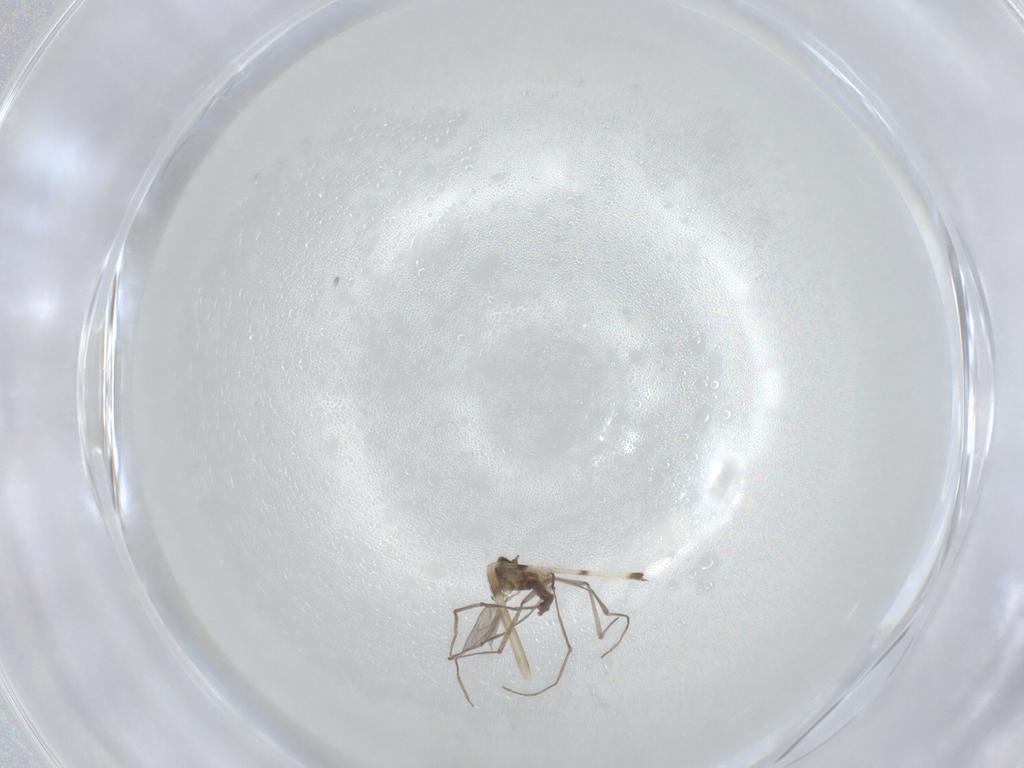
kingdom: Animalia
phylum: Arthropoda
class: Insecta
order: Diptera
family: Cecidomyiidae
